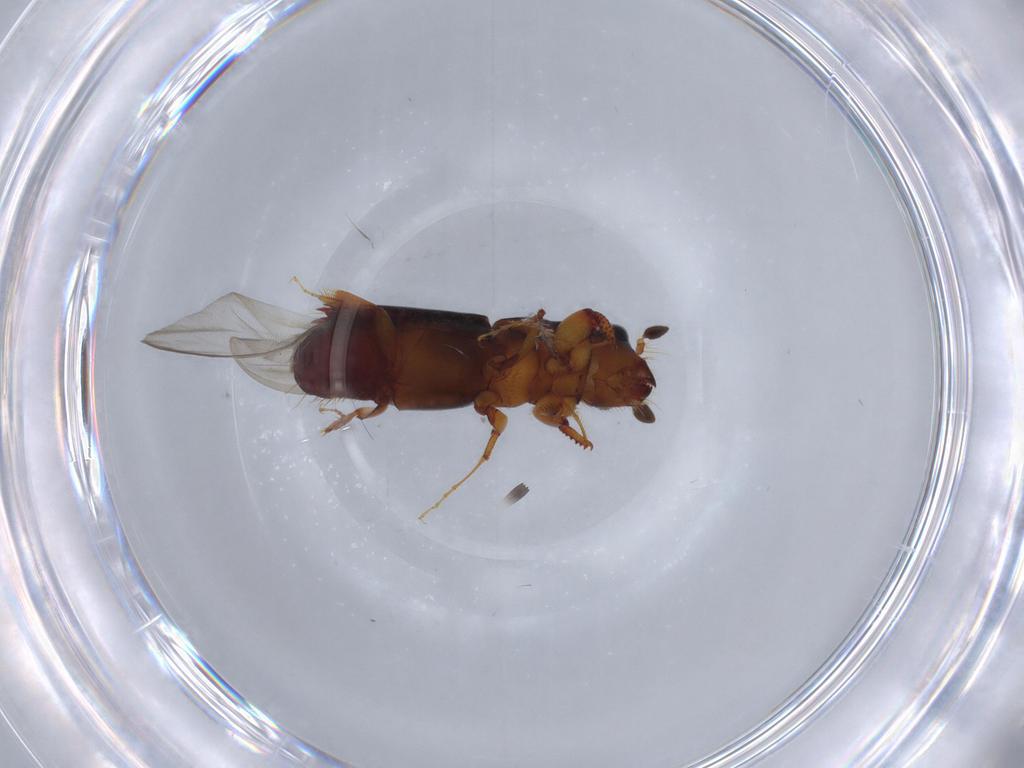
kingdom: Animalia
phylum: Arthropoda
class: Insecta
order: Coleoptera
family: Curculionidae
